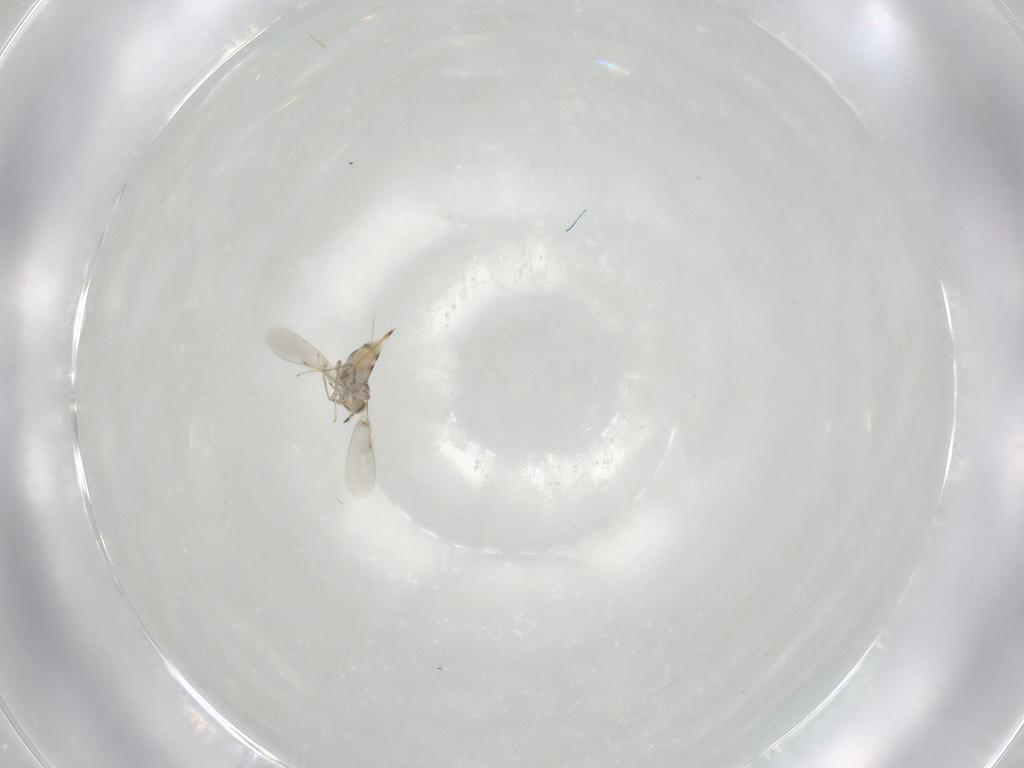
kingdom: Animalia
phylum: Arthropoda
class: Insecta
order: Hymenoptera
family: Aphelinidae
